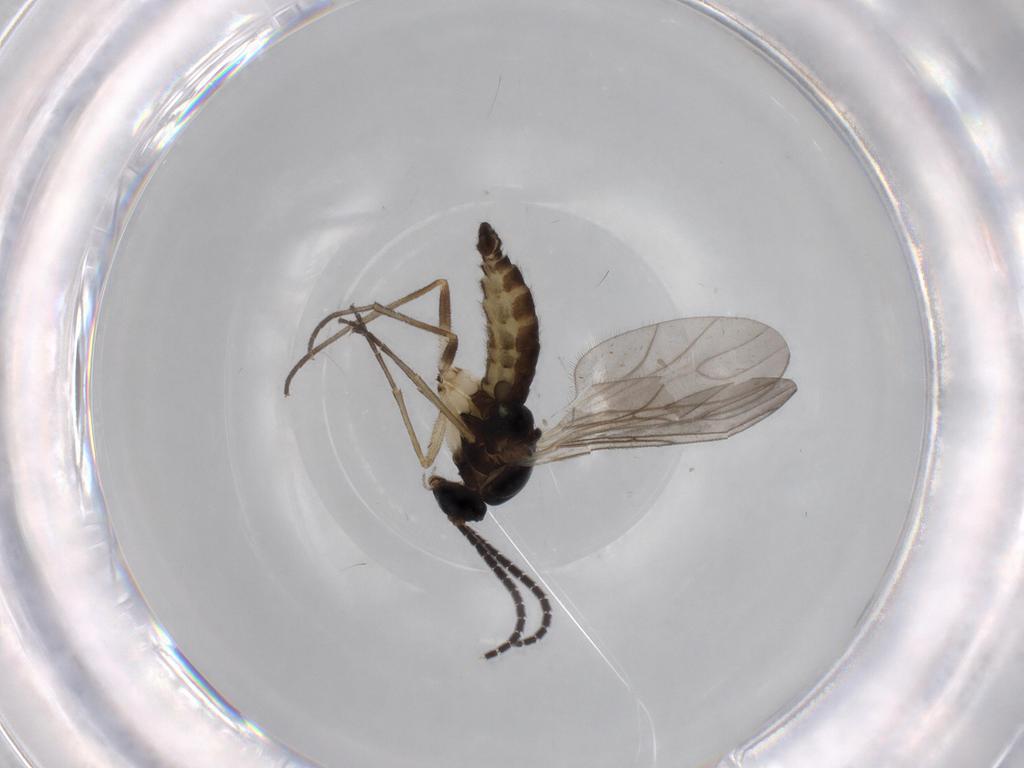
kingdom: Animalia
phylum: Arthropoda
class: Insecta
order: Diptera
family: Sciaridae
